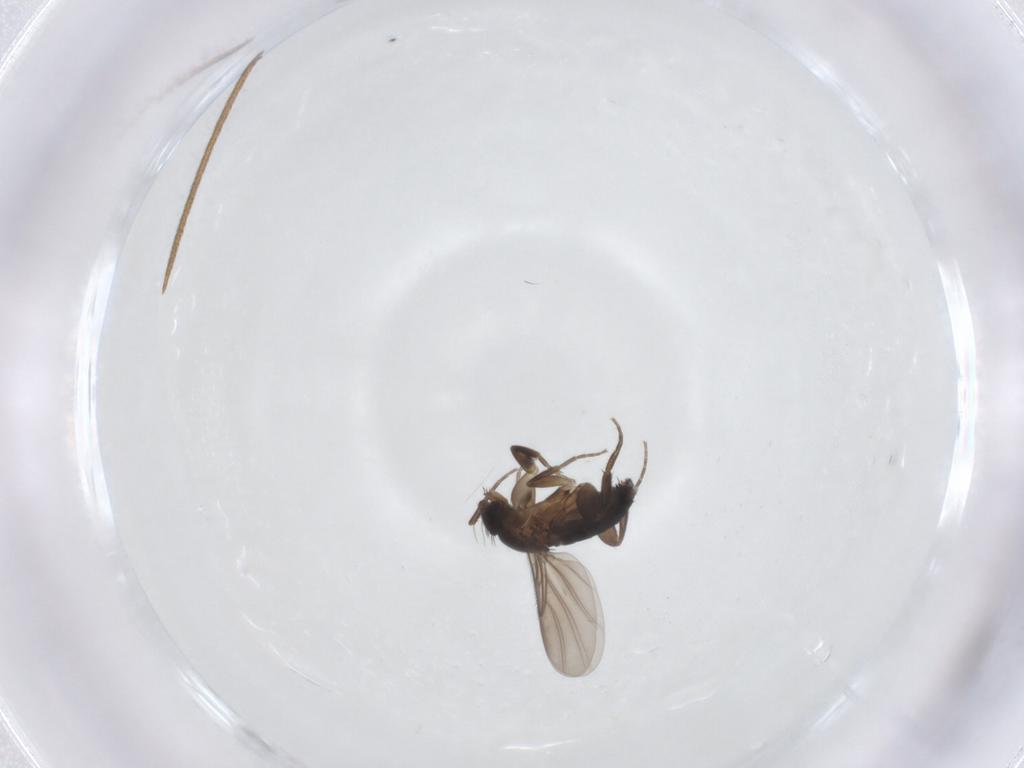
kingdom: Animalia
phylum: Arthropoda
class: Insecta
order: Diptera
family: Phoridae
